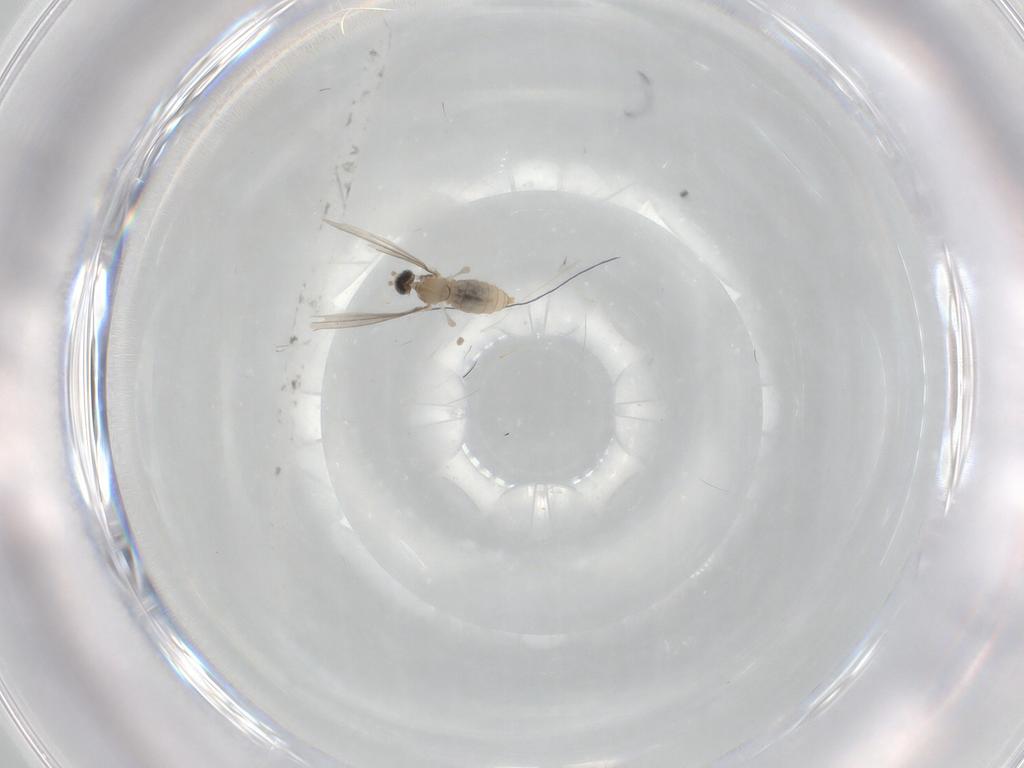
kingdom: Animalia
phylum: Arthropoda
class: Insecta
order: Diptera
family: Cecidomyiidae
